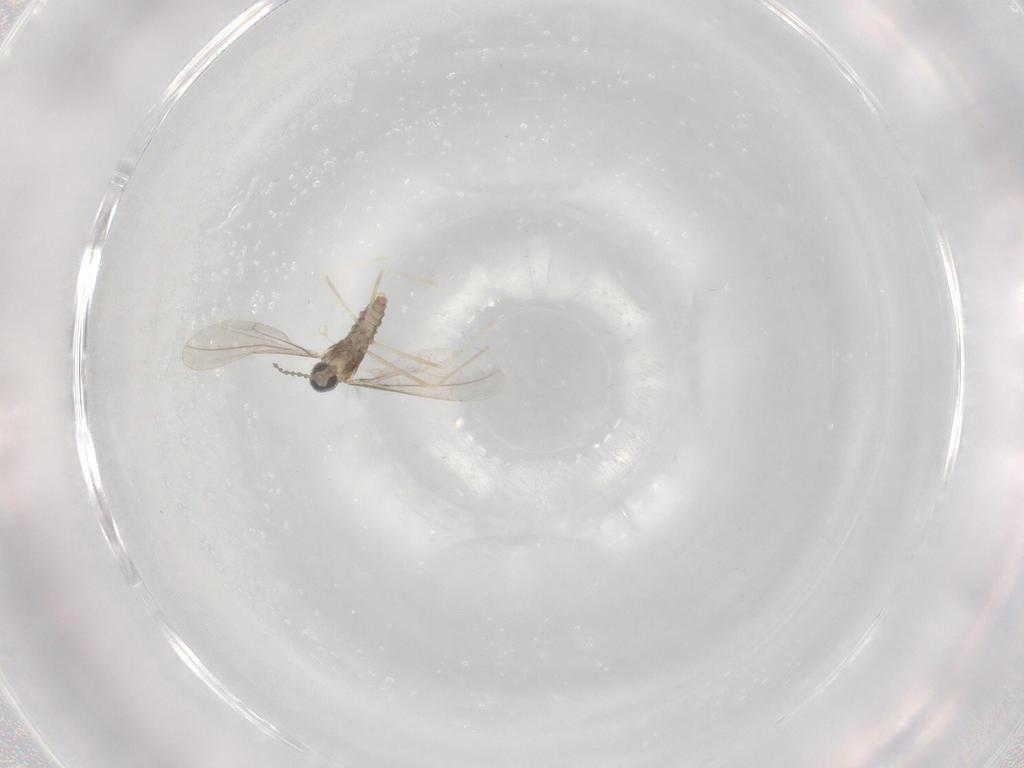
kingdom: Animalia
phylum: Arthropoda
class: Insecta
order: Diptera
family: Cecidomyiidae
